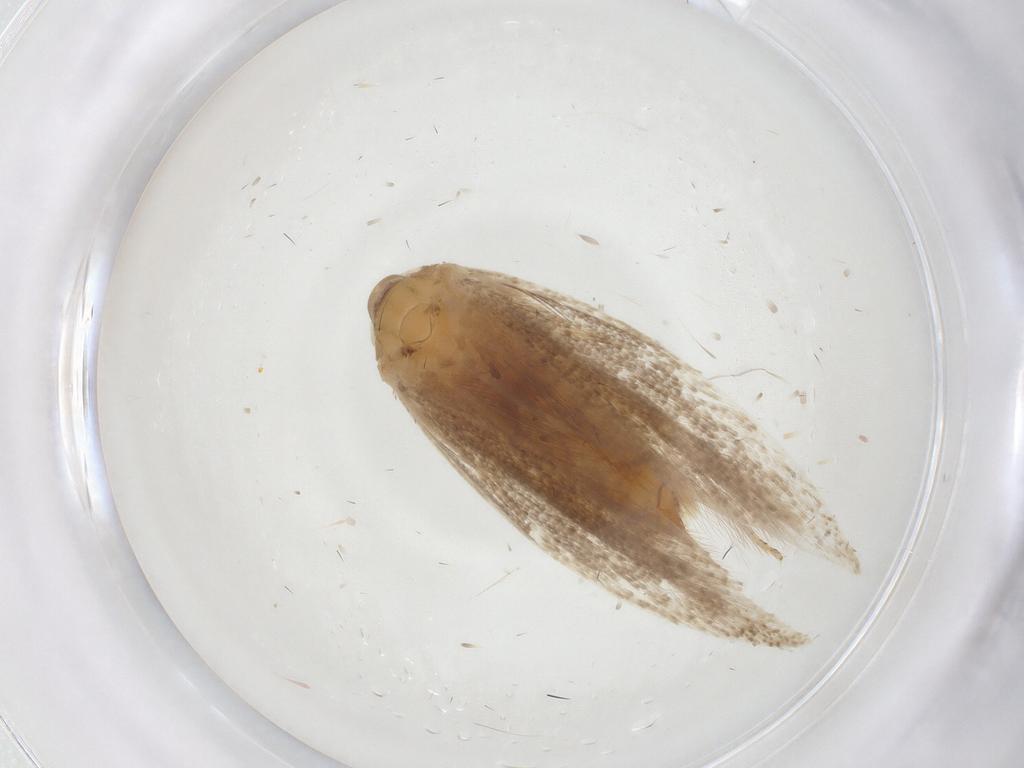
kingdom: Animalia
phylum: Arthropoda
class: Insecta
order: Lepidoptera
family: Erebidae
